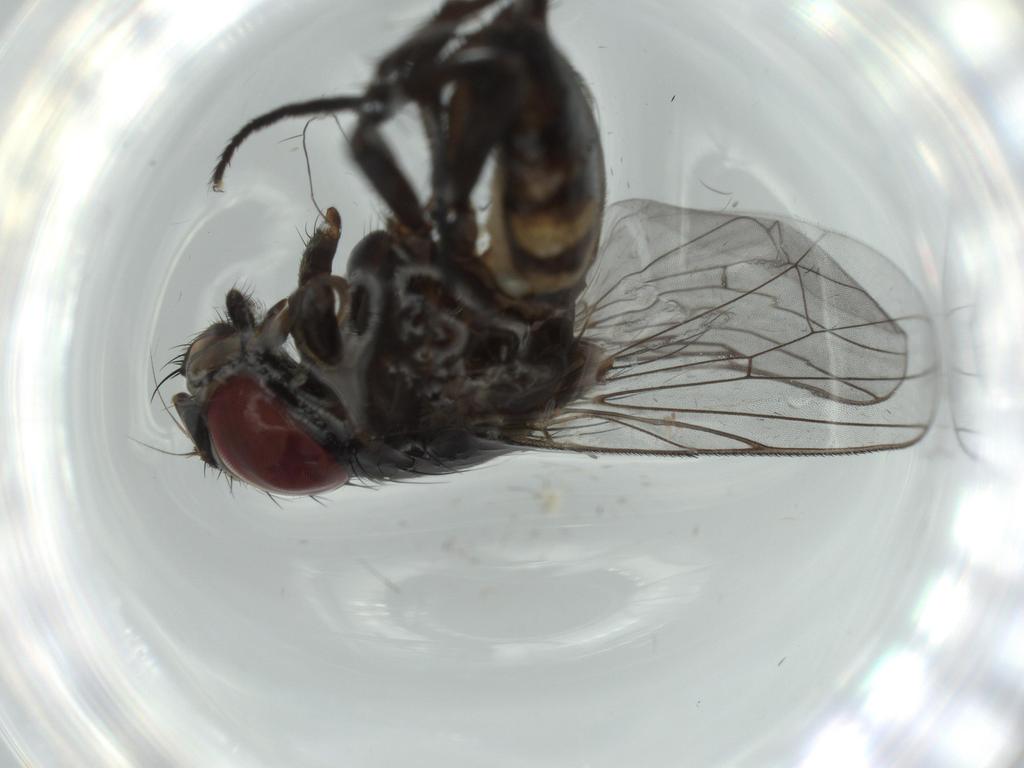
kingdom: Animalia
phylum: Arthropoda
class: Insecta
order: Diptera
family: Fannia
